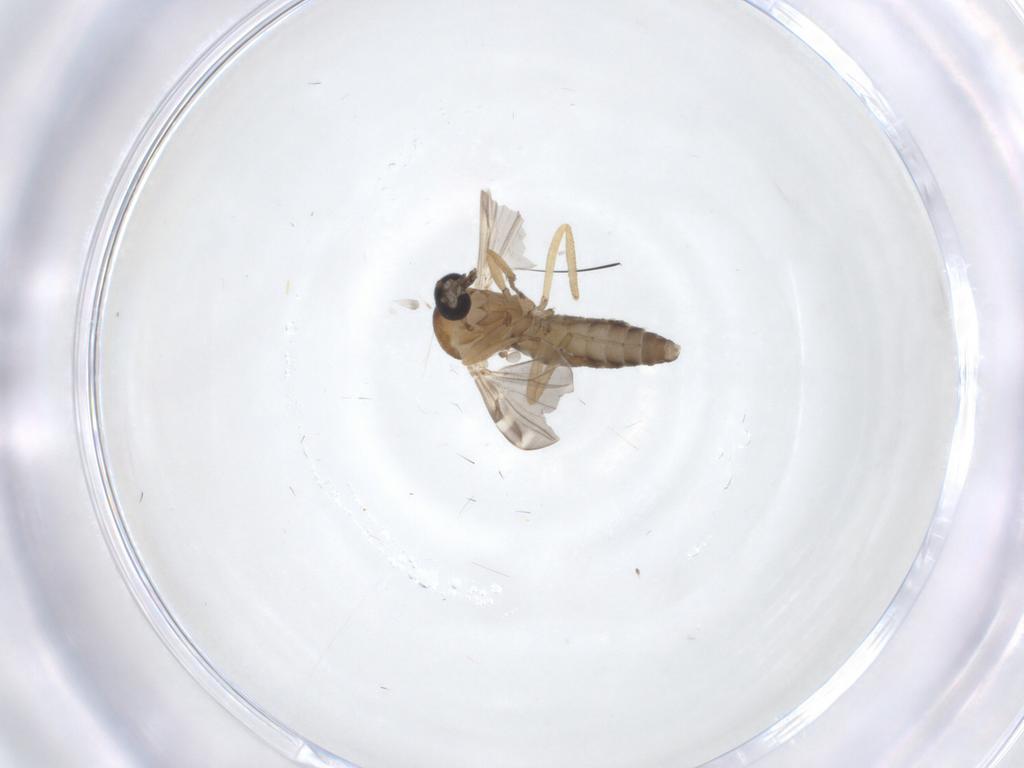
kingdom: Animalia
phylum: Arthropoda
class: Insecta
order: Diptera
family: Ceratopogonidae
